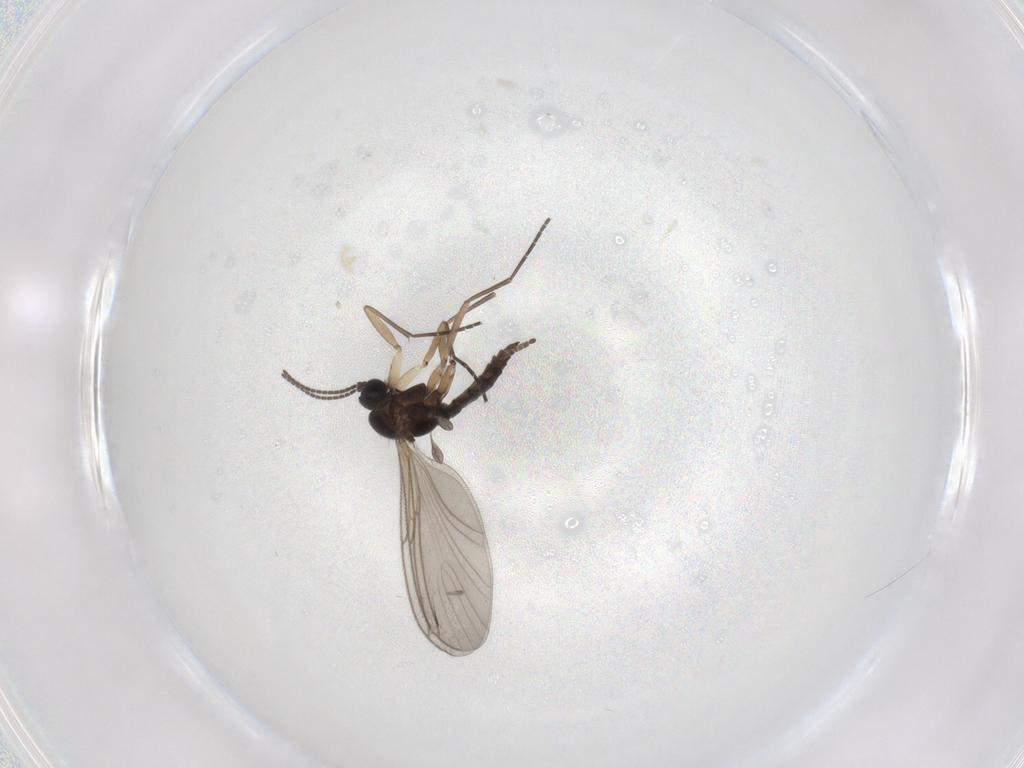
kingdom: Animalia
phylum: Arthropoda
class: Insecta
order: Diptera
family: Sciaridae
